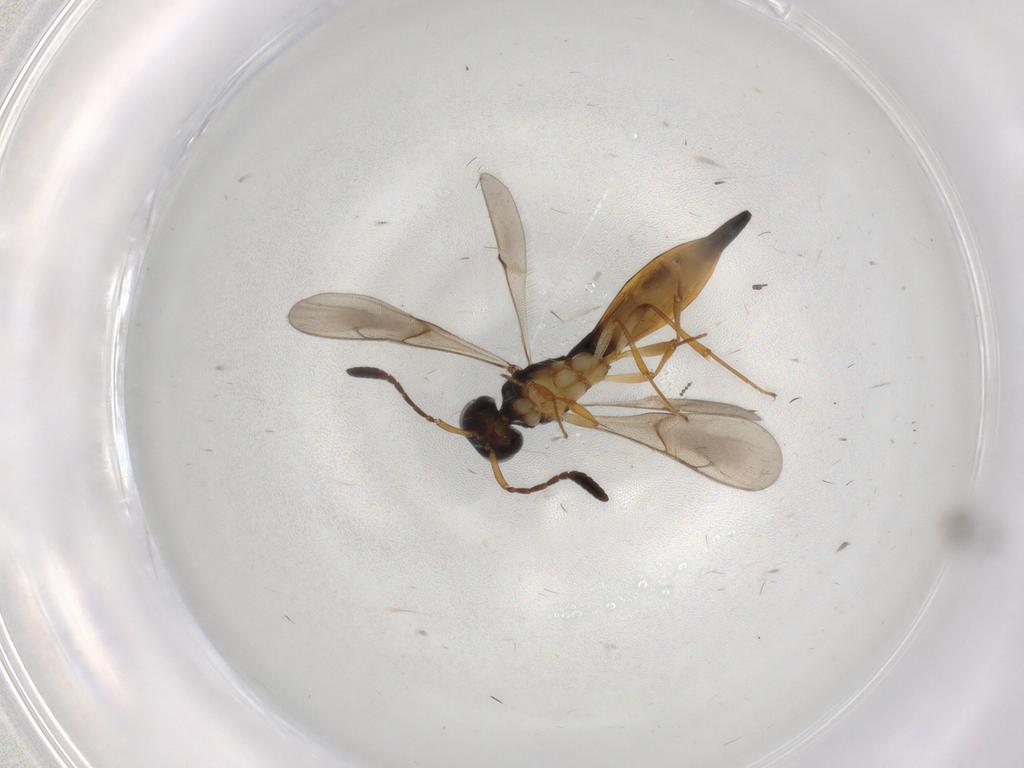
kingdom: Animalia
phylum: Arthropoda
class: Insecta
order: Hymenoptera
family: Scelionidae
